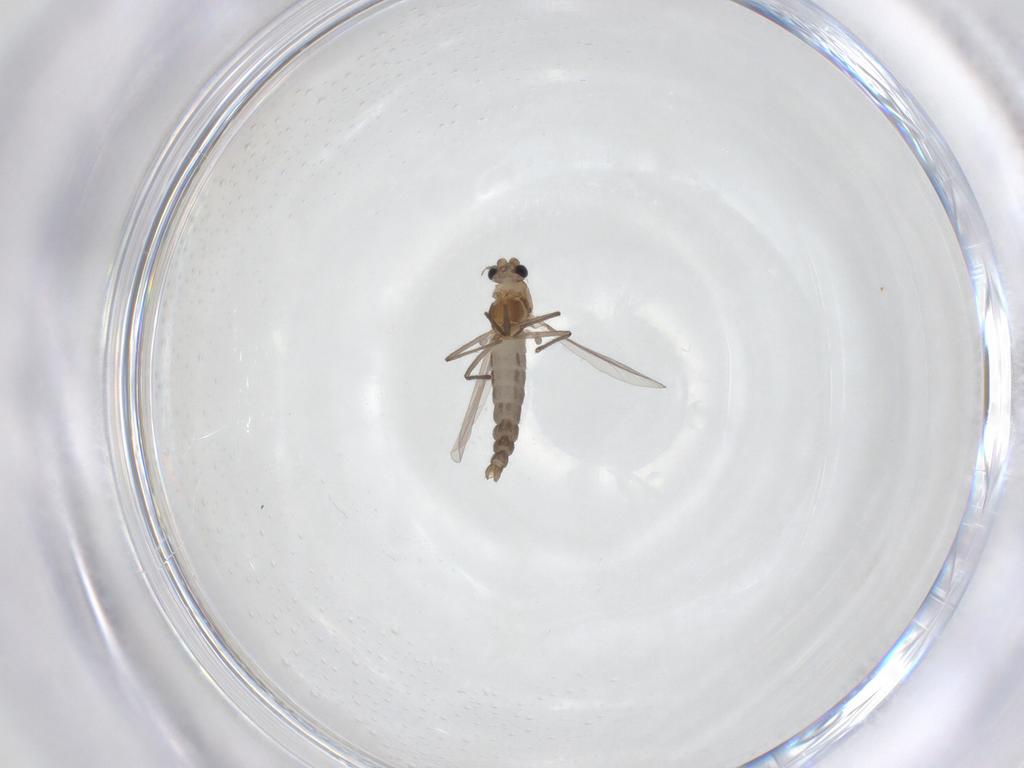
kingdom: Animalia
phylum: Arthropoda
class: Insecta
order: Diptera
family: Chironomidae
